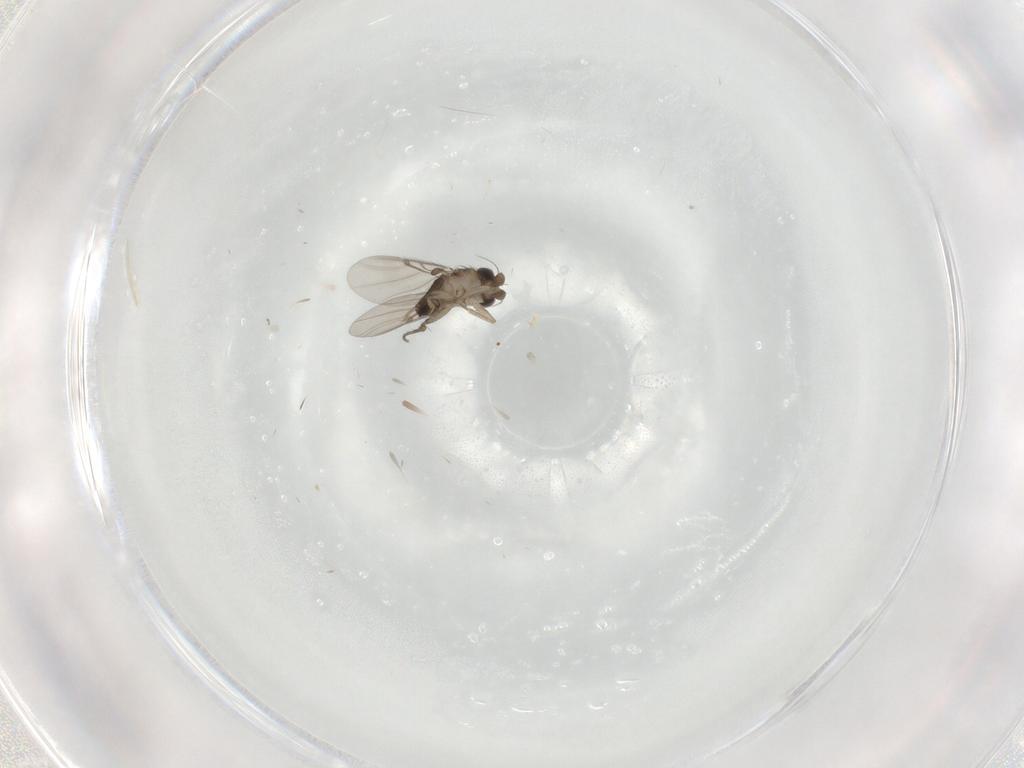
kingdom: Animalia
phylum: Arthropoda
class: Insecta
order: Diptera
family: Phoridae
